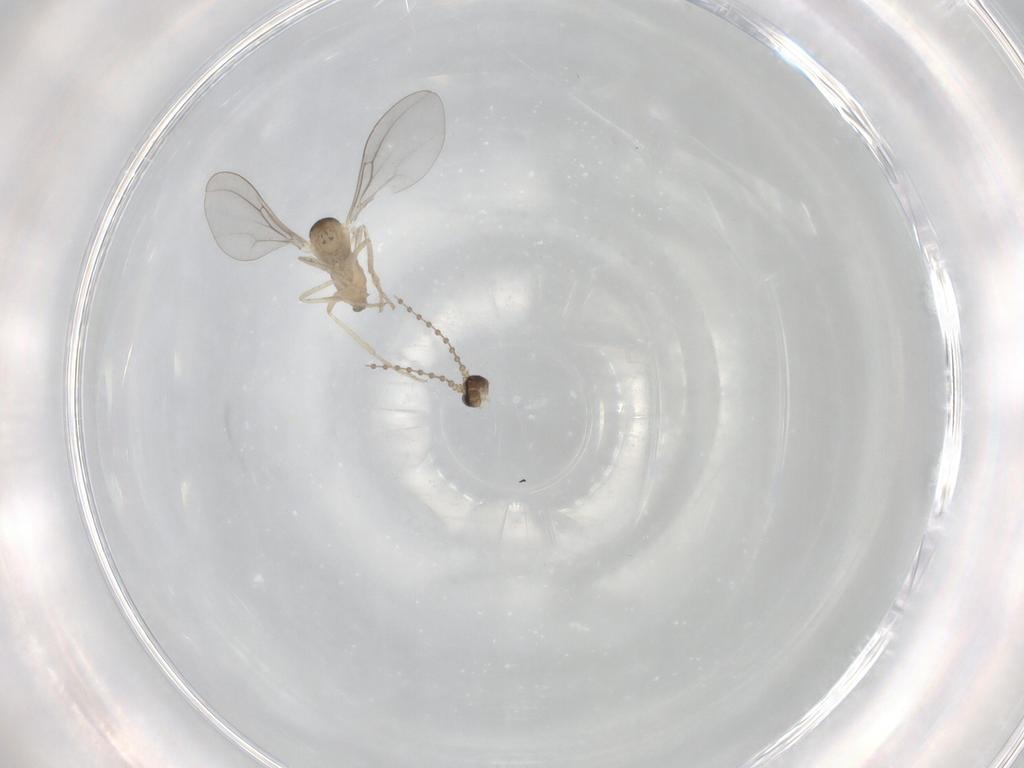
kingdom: Animalia
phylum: Arthropoda
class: Insecta
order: Diptera
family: Cecidomyiidae
